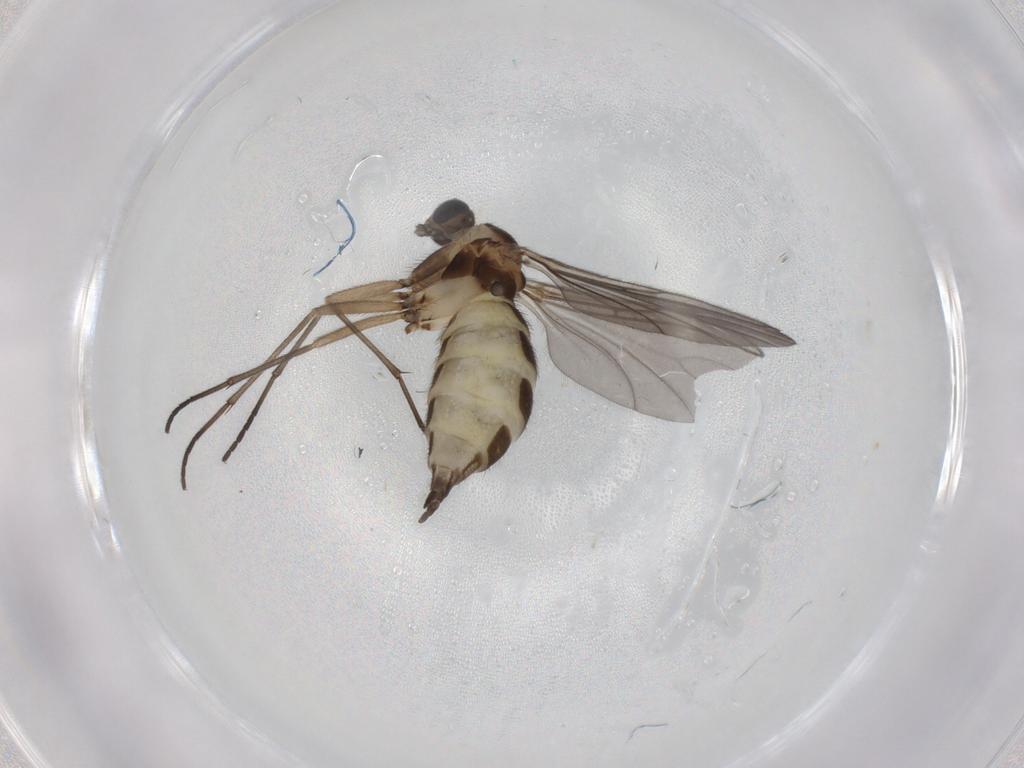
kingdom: Animalia
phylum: Arthropoda
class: Insecta
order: Diptera
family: Sciaridae
